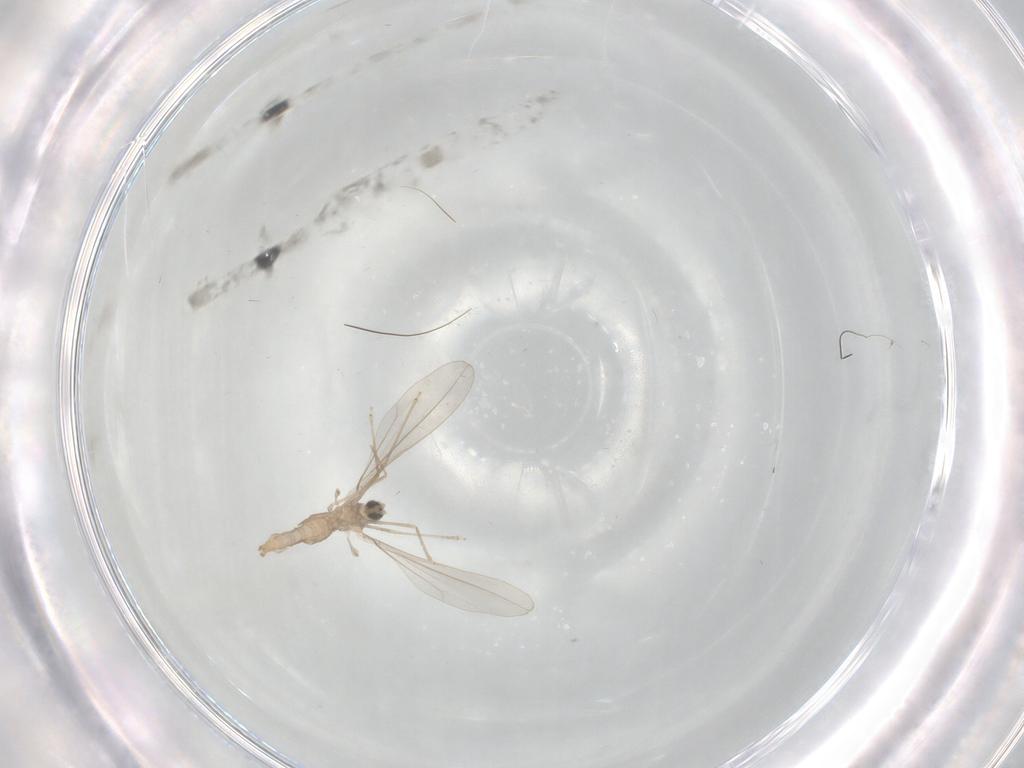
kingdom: Animalia
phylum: Arthropoda
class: Insecta
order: Diptera
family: Cecidomyiidae
